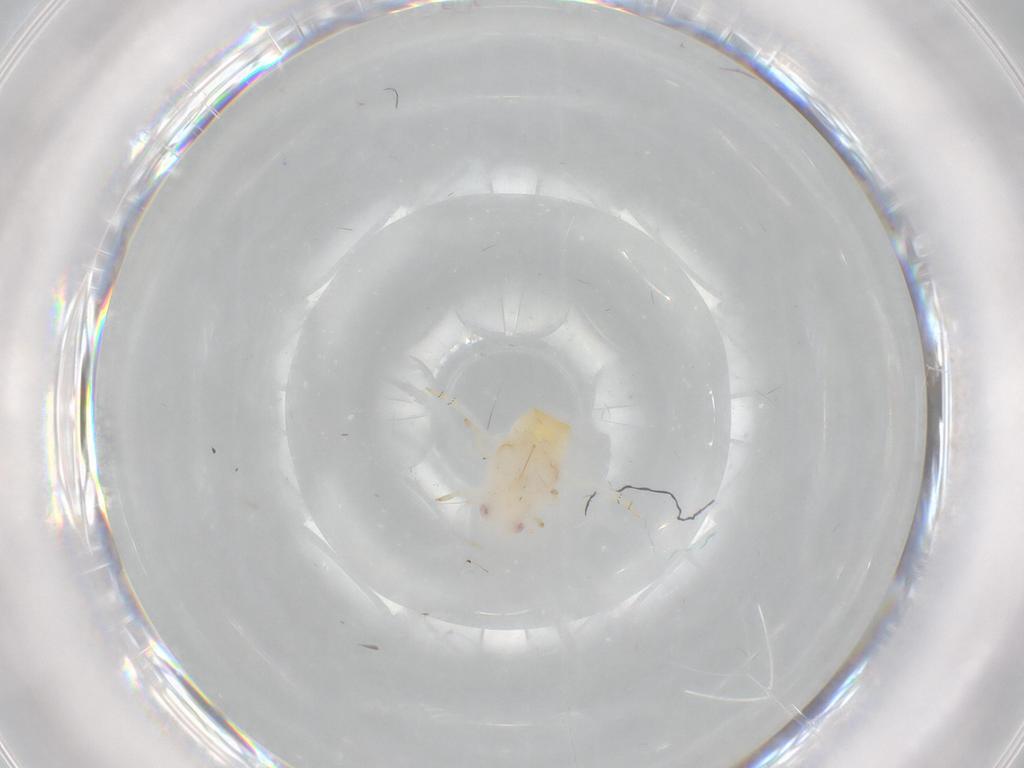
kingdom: Animalia
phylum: Arthropoda
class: Insecta
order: Hemiptera
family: Flatidae
